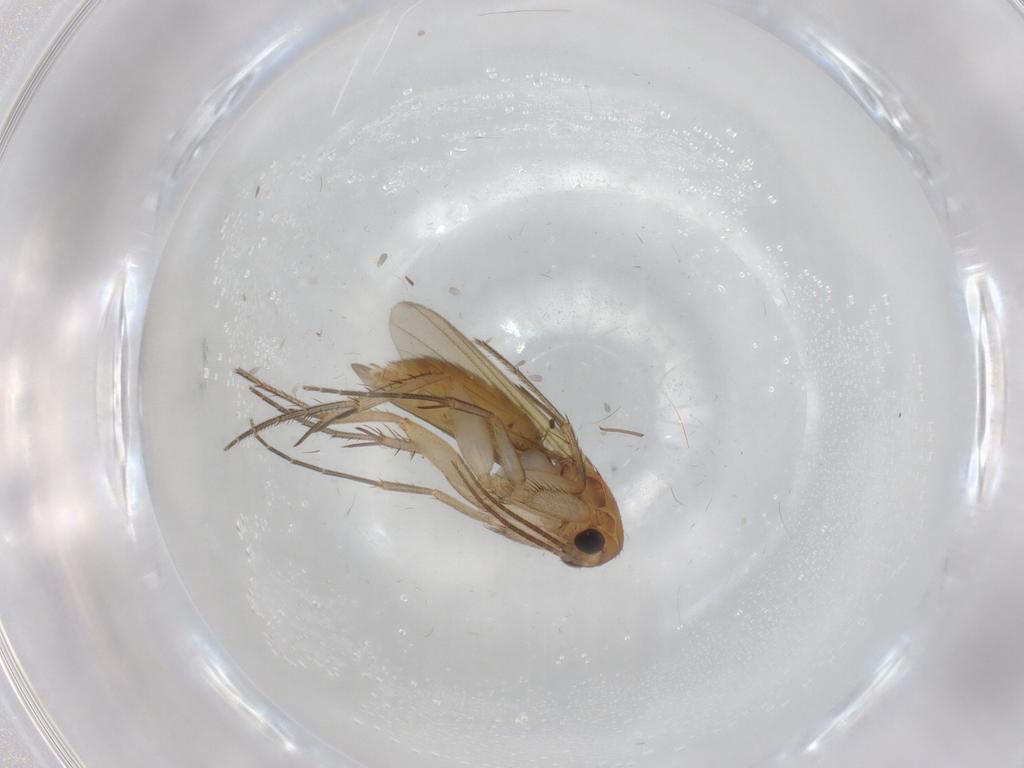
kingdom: Animalia
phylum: Arthropoda
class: Insecta
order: Diptera
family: Mycetophilidae
